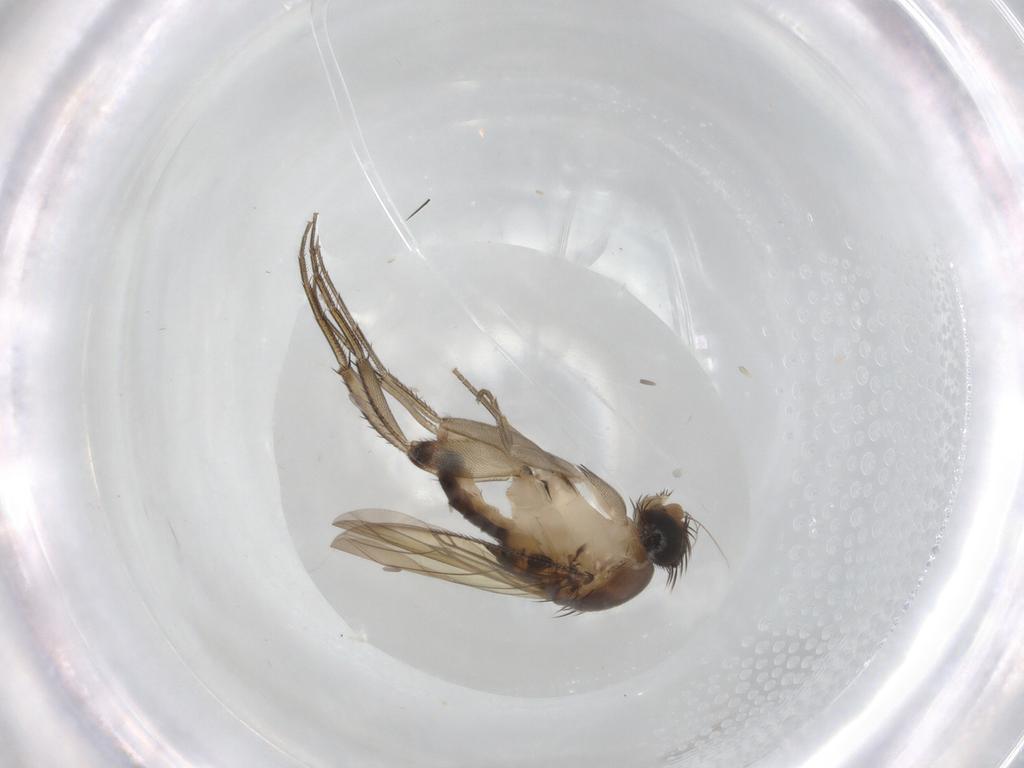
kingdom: Animalia
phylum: Arthropoda
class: Insecta
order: Diptera
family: Phoridae
